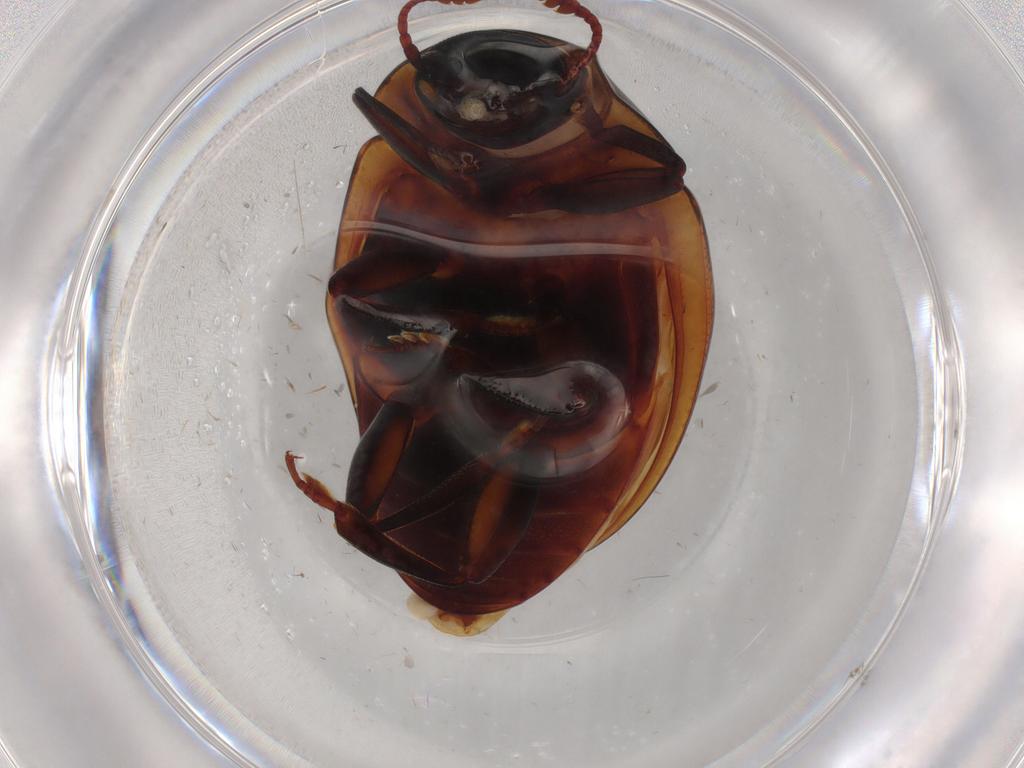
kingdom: Animalia
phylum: Arthropoda
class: Insecta
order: Coleoptera
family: Zopheridae
